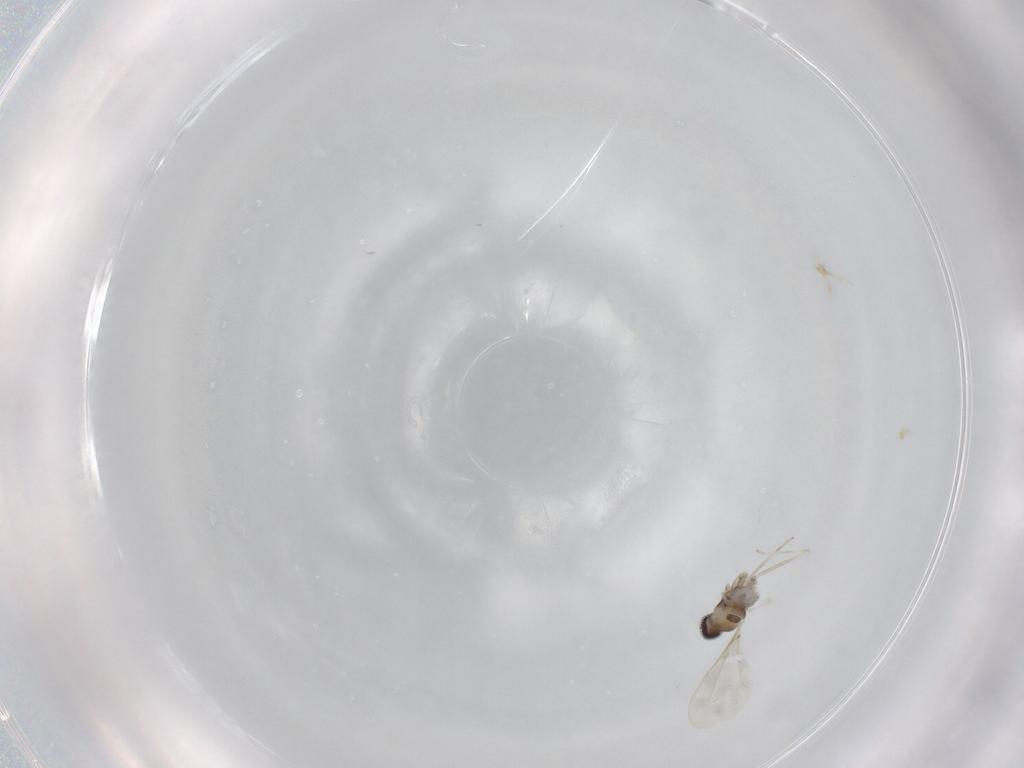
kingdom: Animalia
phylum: Arthropoda
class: Insecta
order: Diptera
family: Cecidomyiidae
